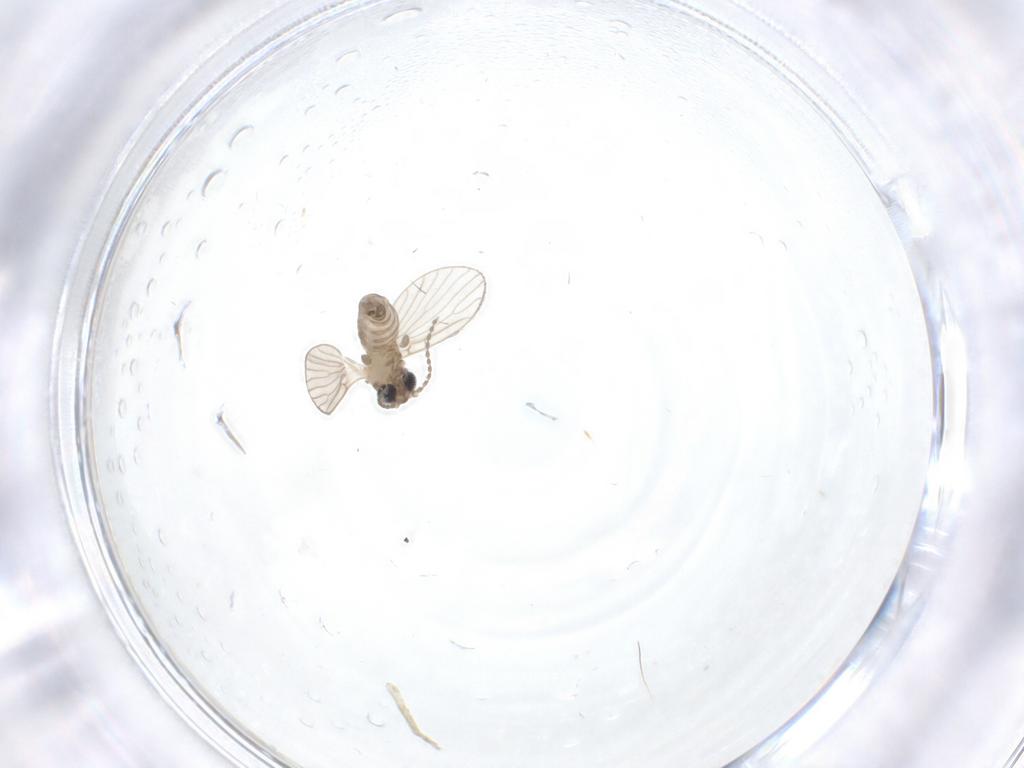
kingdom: Animalia
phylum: Arthropoda
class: Insecta
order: Diptera
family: Psychodidae
